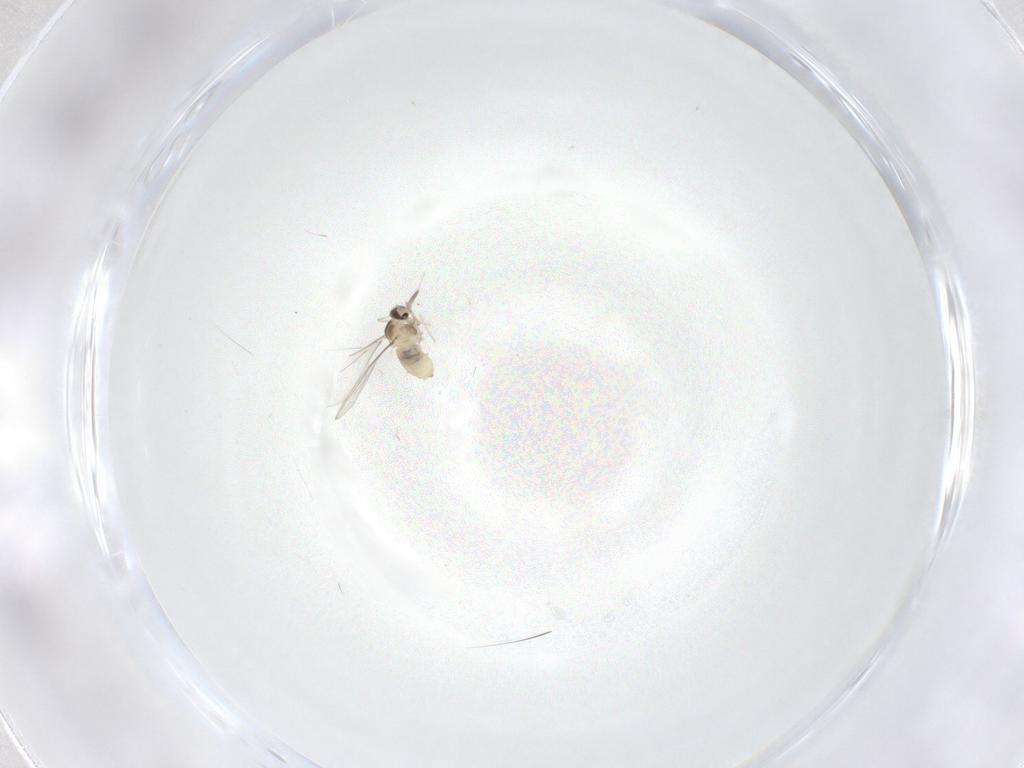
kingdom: Animalia
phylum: Arthropoda
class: Insecta
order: Diptera
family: Cecidomyiidae
